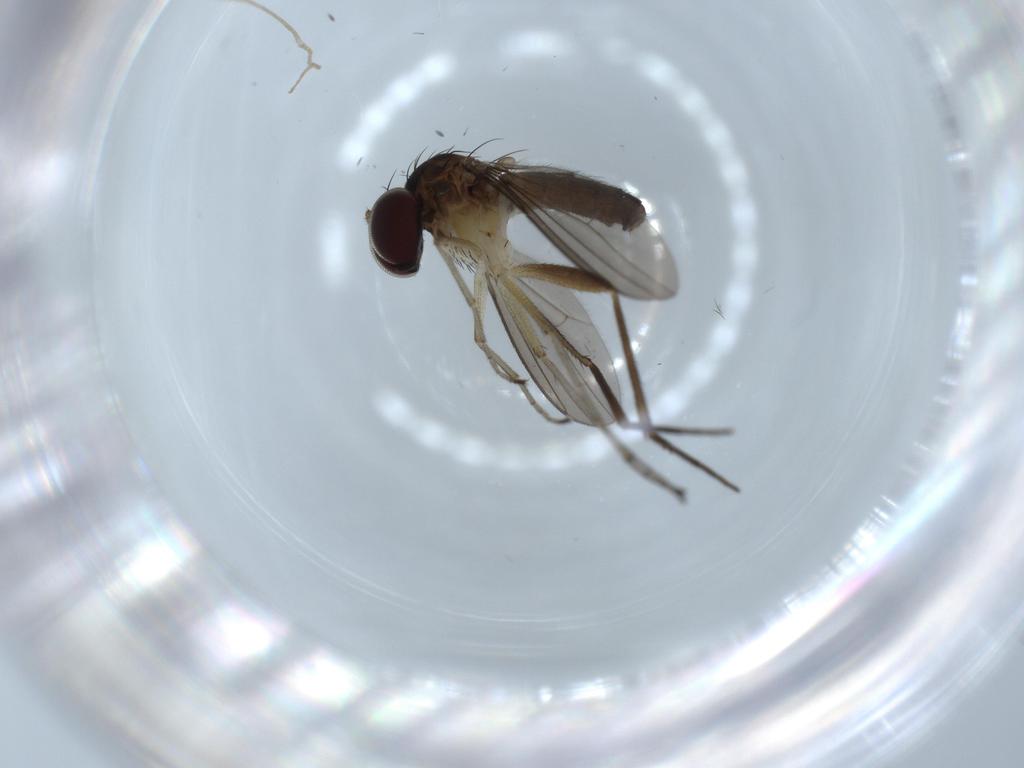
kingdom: Animalia
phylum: Arthropoda
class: Insecta
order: Diptera
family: Dolichopodidae
